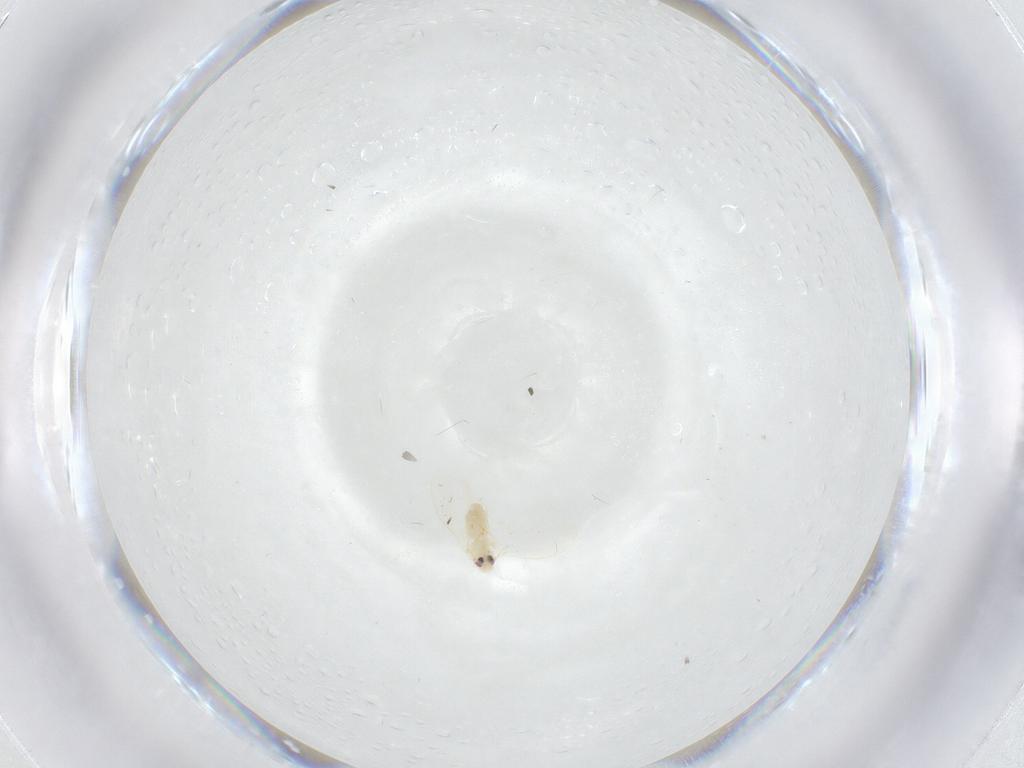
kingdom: Animalia
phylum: Arthropoda
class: Insecta
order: Hemiptera
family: Aleyrodidae
